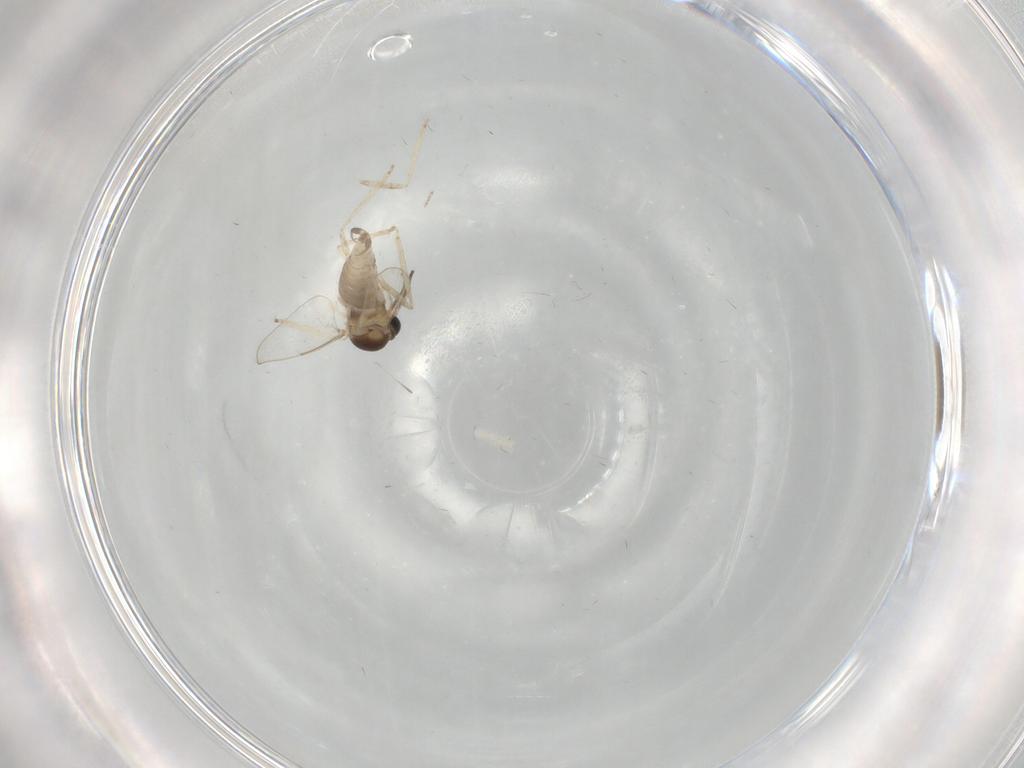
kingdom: Animalia
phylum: Arthropoda
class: Insecta
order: Diptera
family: Cecidomyiidae
